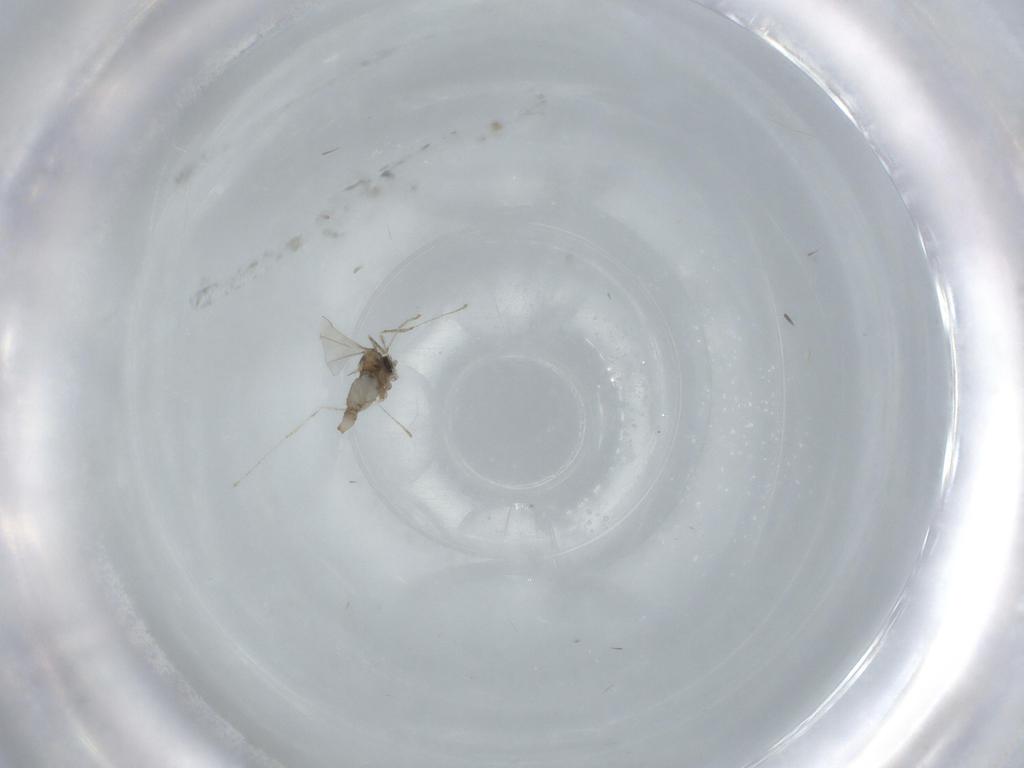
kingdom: Animalia
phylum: Arthropoda
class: Insecta
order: Diptera
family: Cecidomyiidae
